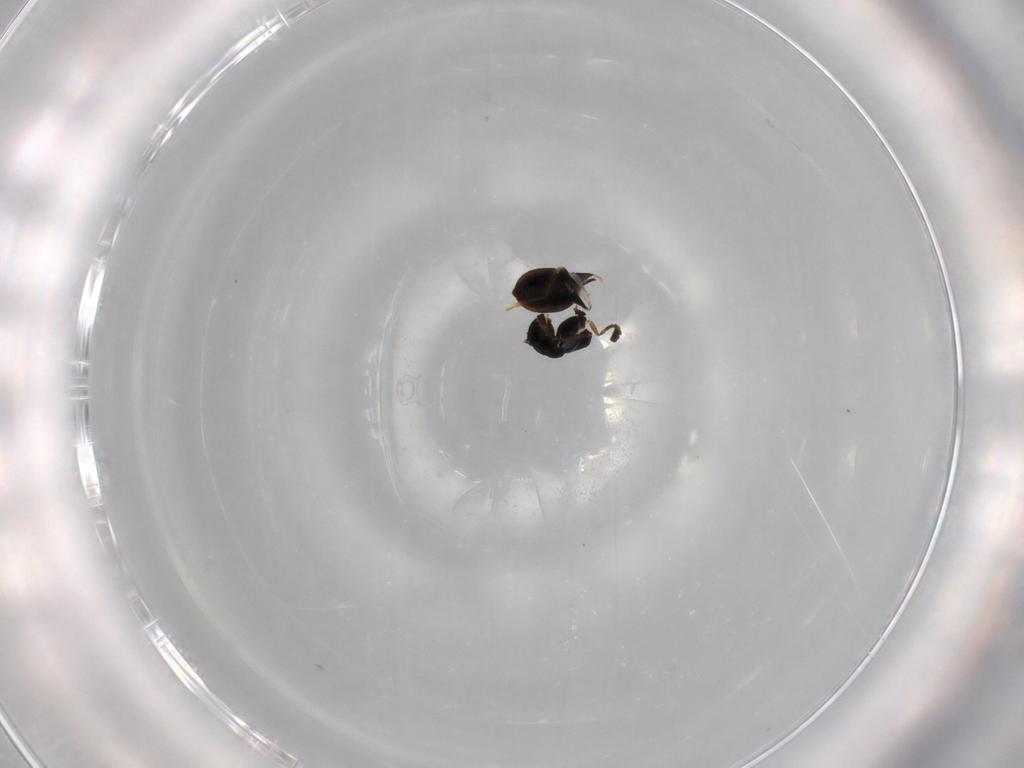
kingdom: Animalia
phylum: Arthropoda
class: Insecta
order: Hymenoptera
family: Scelionidae
